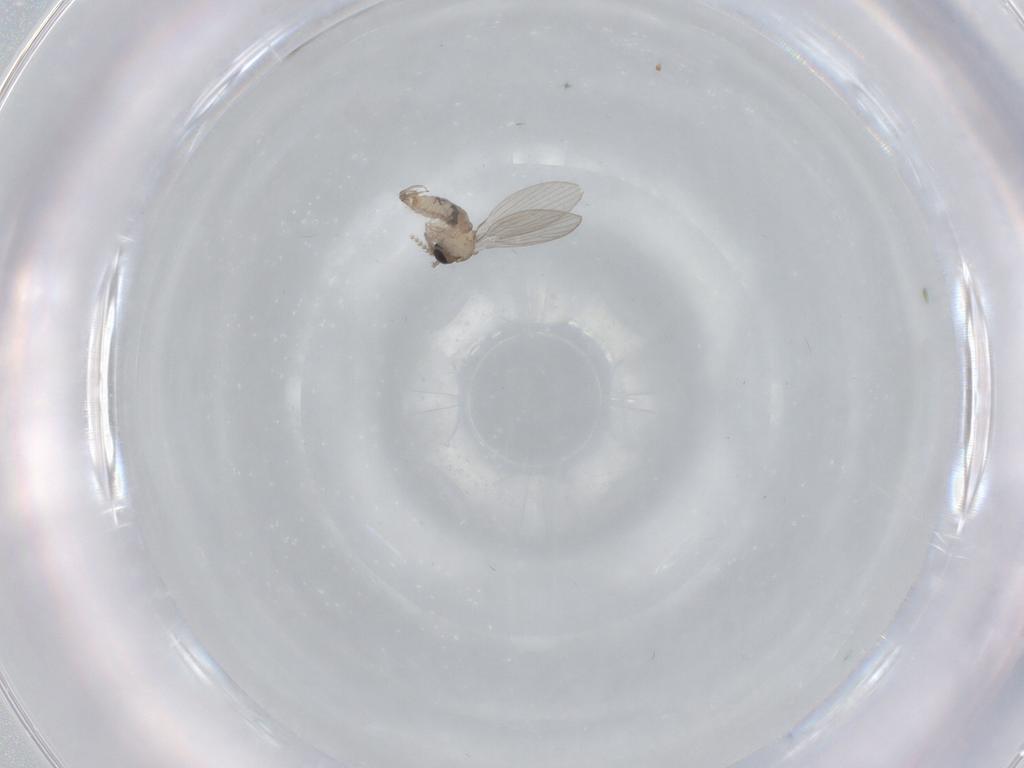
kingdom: Animalia
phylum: Arthropoda
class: Insecta
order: Diptera
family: Psychodidae
